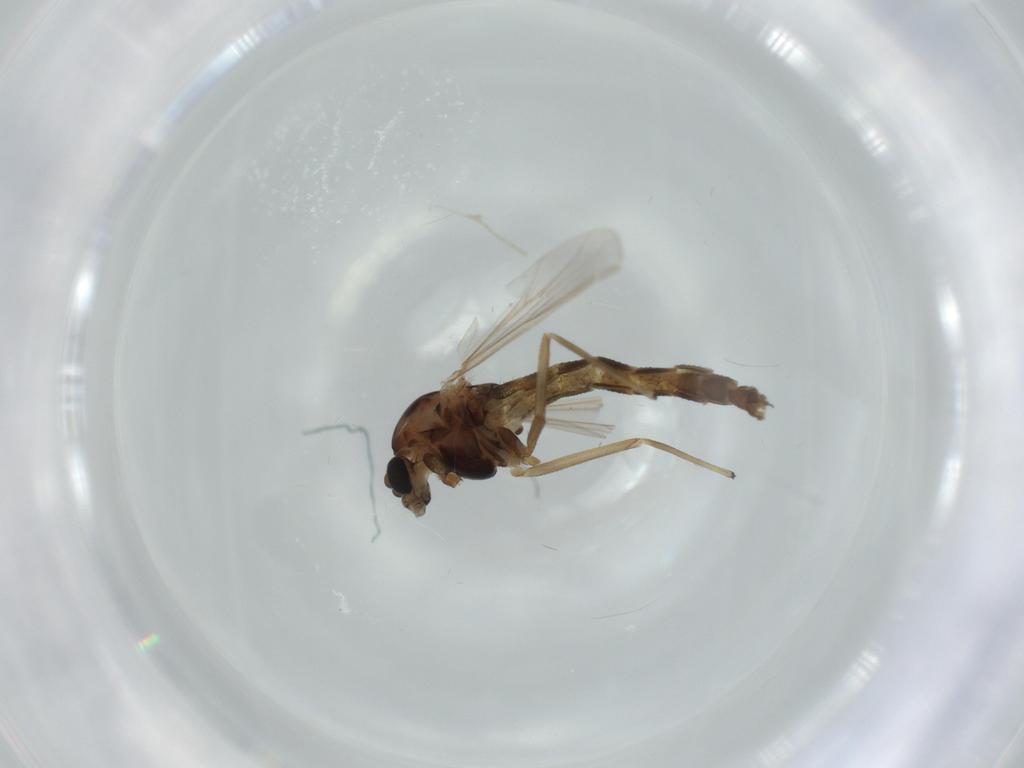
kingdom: Animalia
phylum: Arthropoda
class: Insecta
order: Diptera
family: Chironomidae
